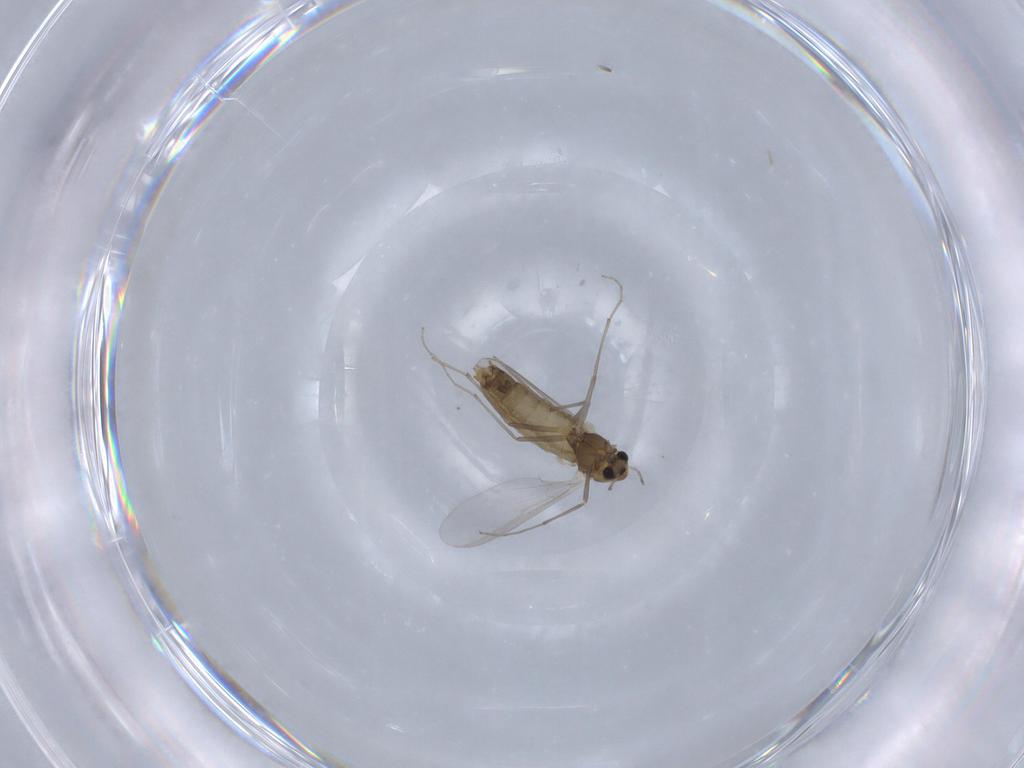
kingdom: Animalia
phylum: Arthropoda
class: Insecta
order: Diptera
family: Chironomidae
